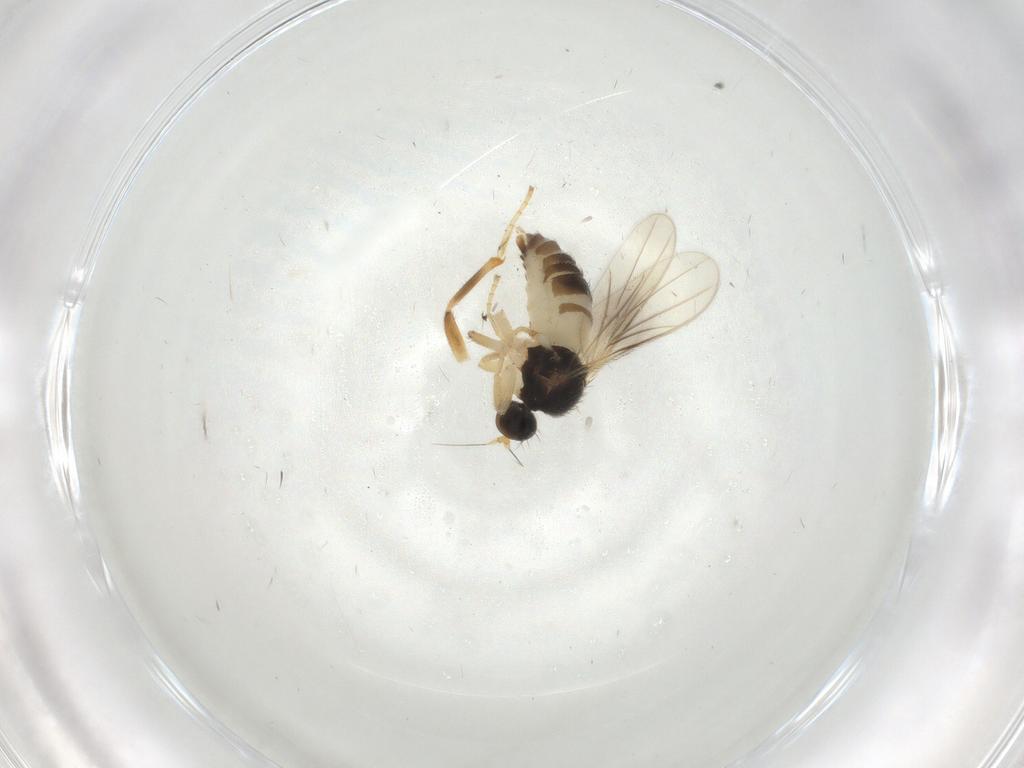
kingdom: Animalia
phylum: Arthropoda
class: Insecta
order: Diptera
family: Hybotidae
